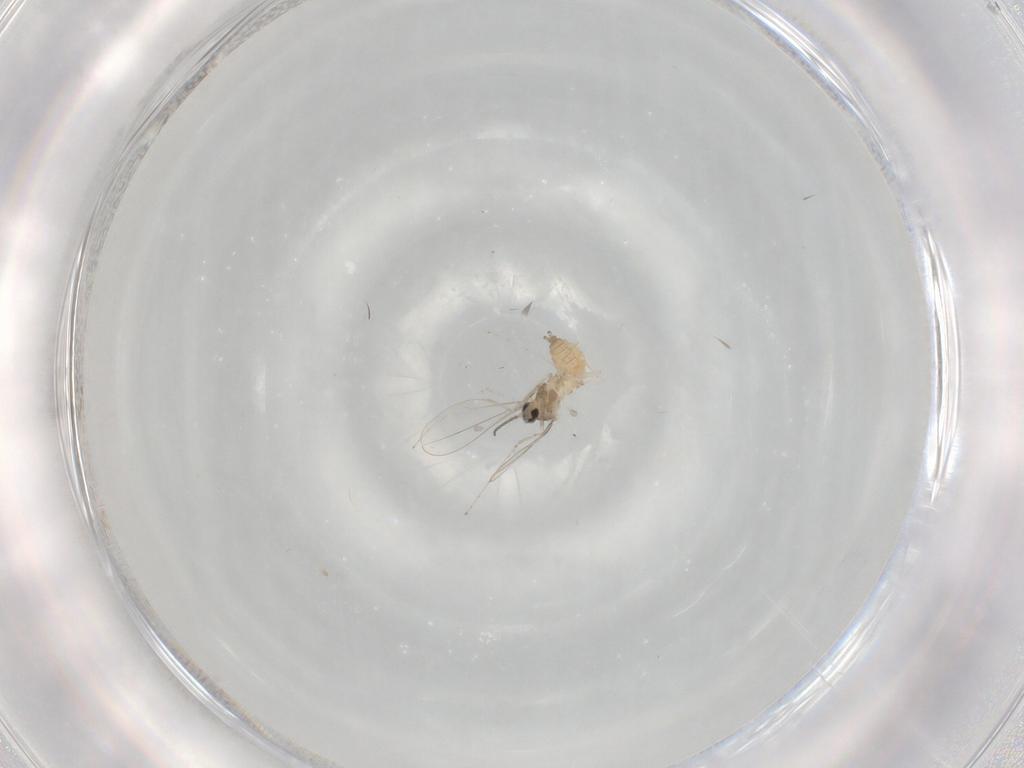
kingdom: Animalia
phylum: Arthropoda
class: Insecta
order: Diptera
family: Cecidomyiidae
